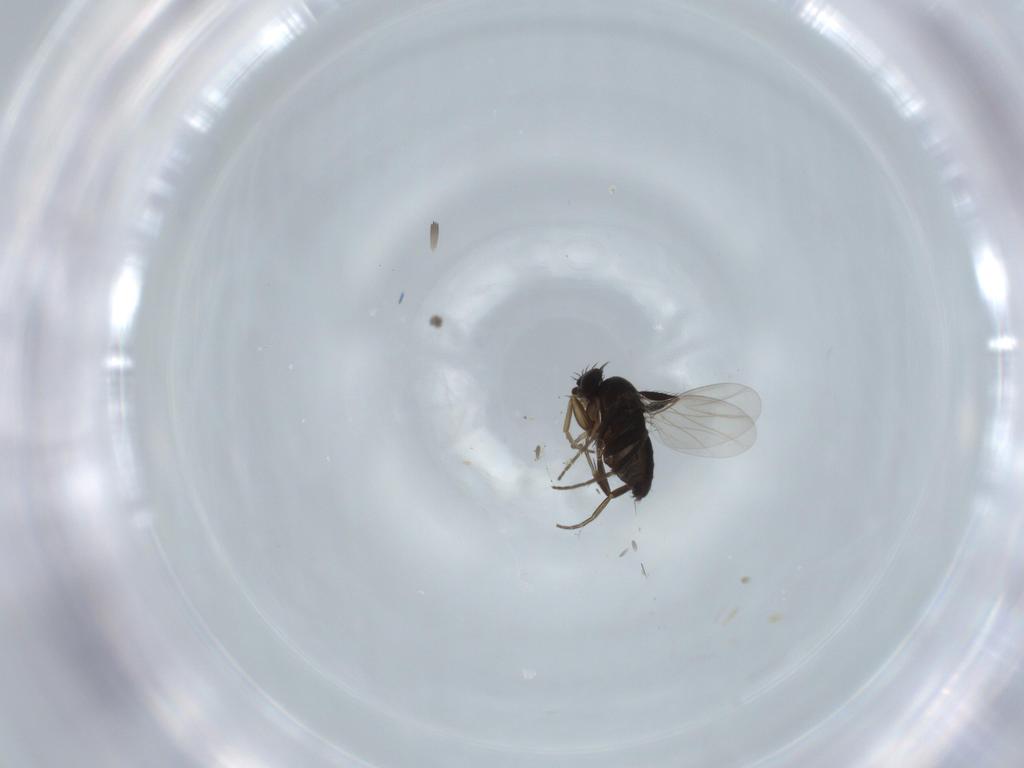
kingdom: Animalia
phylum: Arthropoda
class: Insecta
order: Diptera
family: Phoridae
